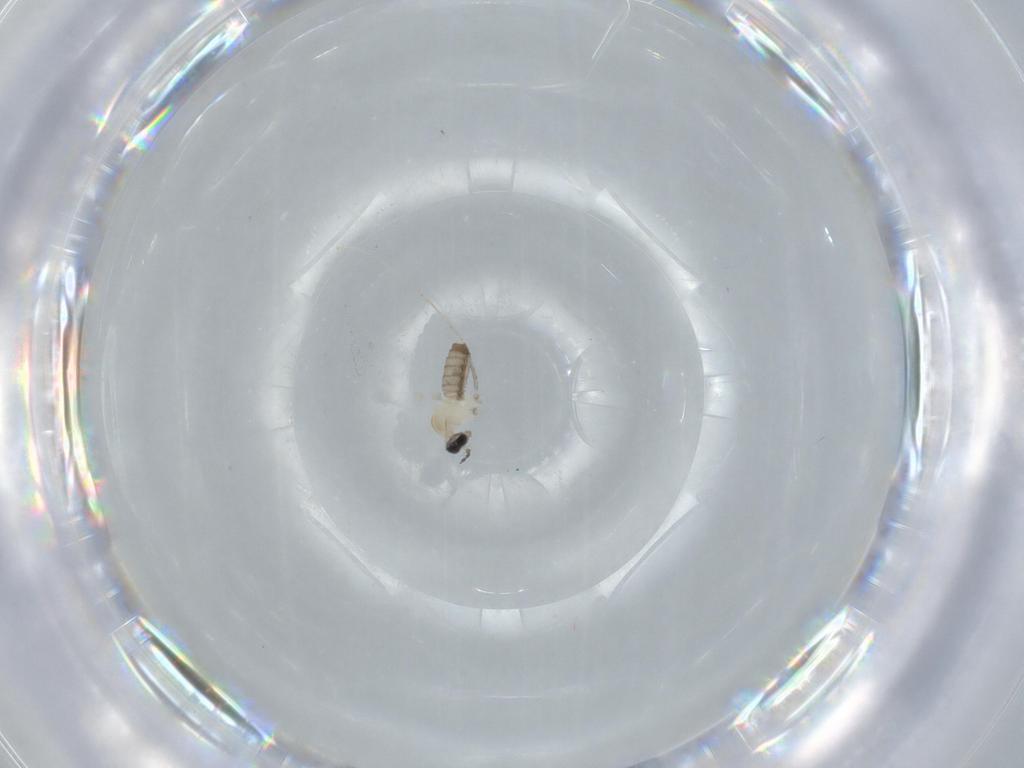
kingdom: Animalia
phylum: Arthropoda
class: Insecta
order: Diptera
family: Cecidomyiidae
